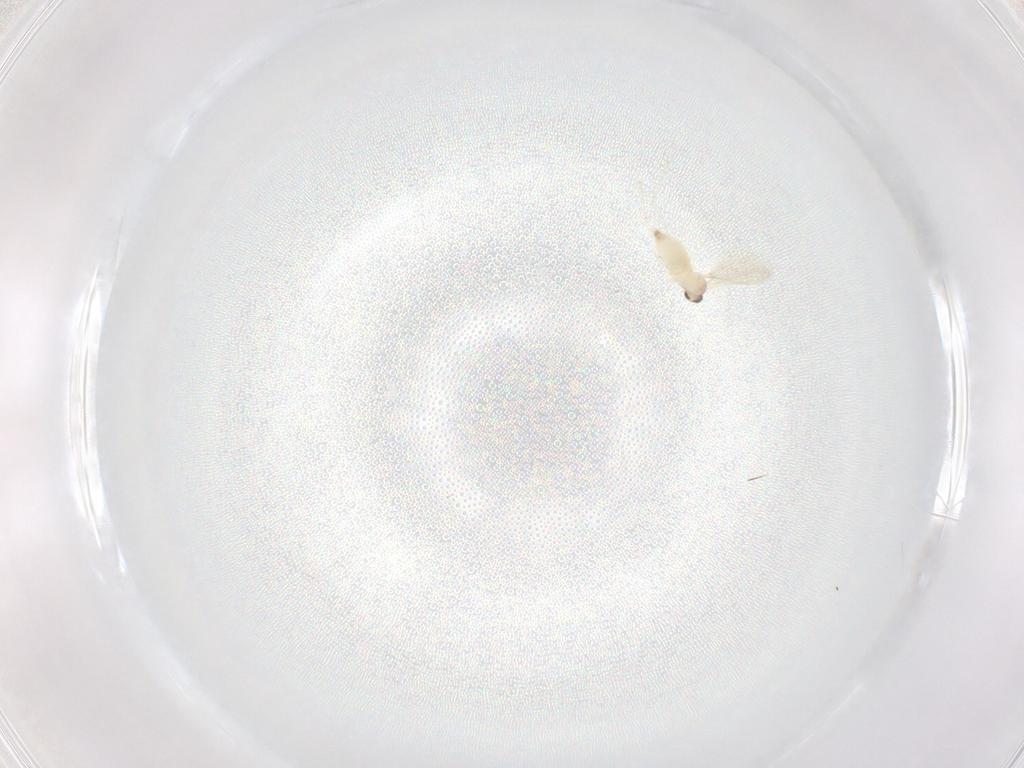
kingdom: Animalia
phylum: Arthropoda
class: Insecta
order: Diptera
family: Cecidomyiidae
